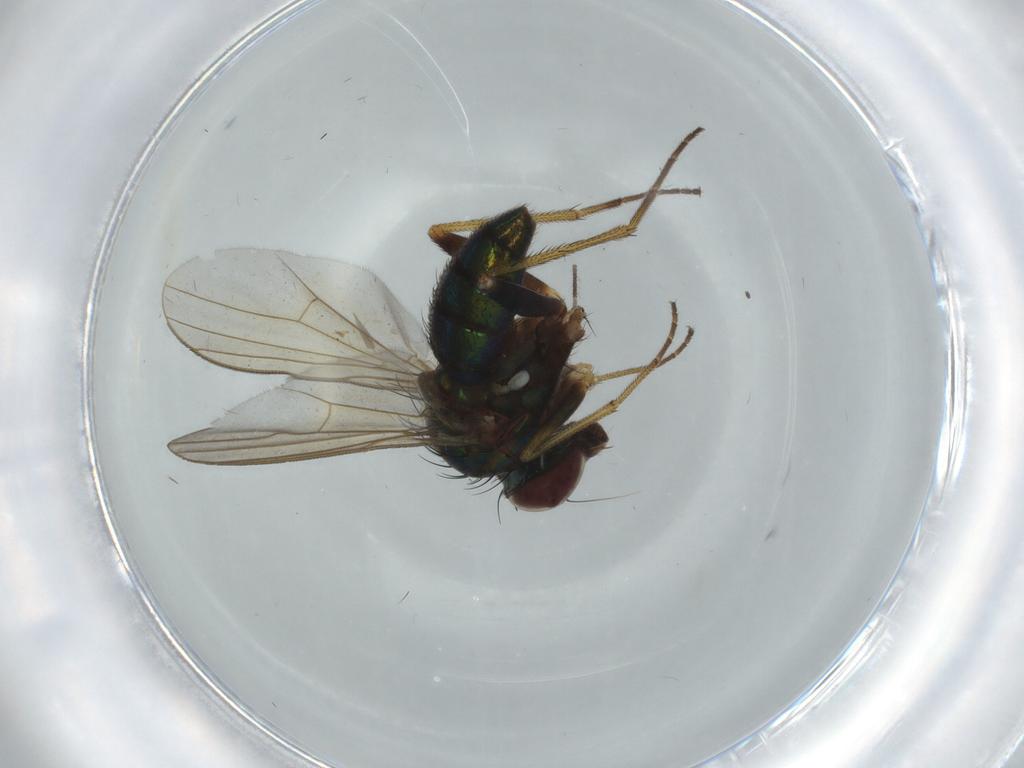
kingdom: Animalia
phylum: Arthropoda
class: Insecta
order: Diptera
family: Dolichopodidae
